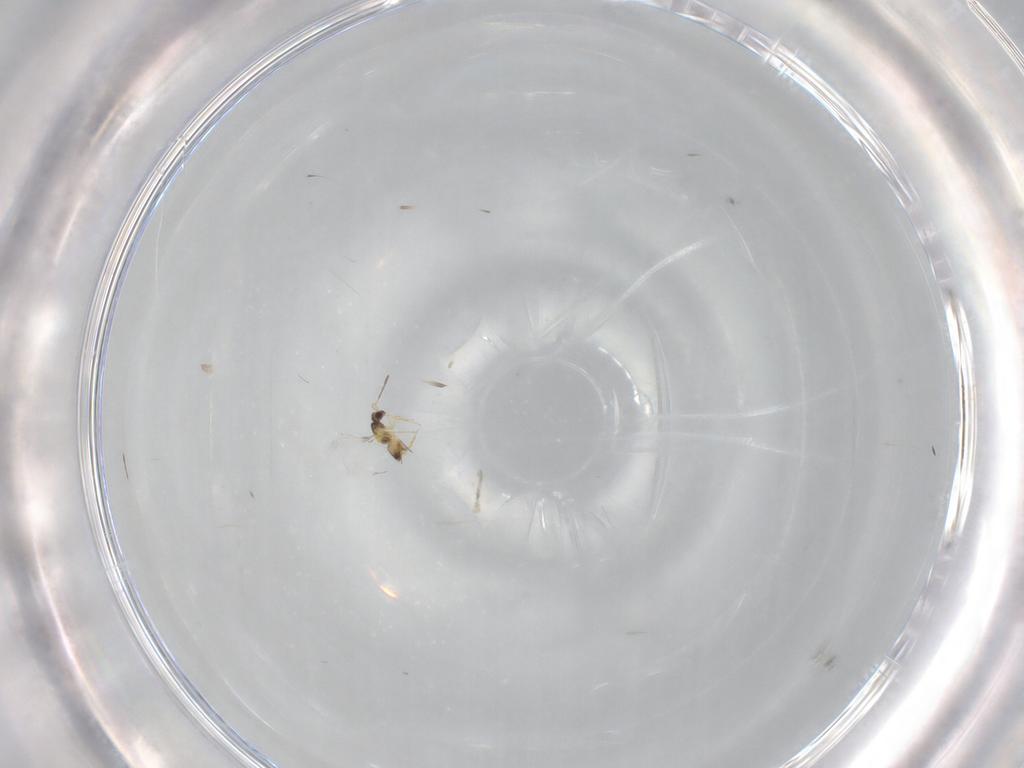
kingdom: Animalia
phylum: Arthropoda
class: Insecta
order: Hymenoptera
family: Mymaridae
